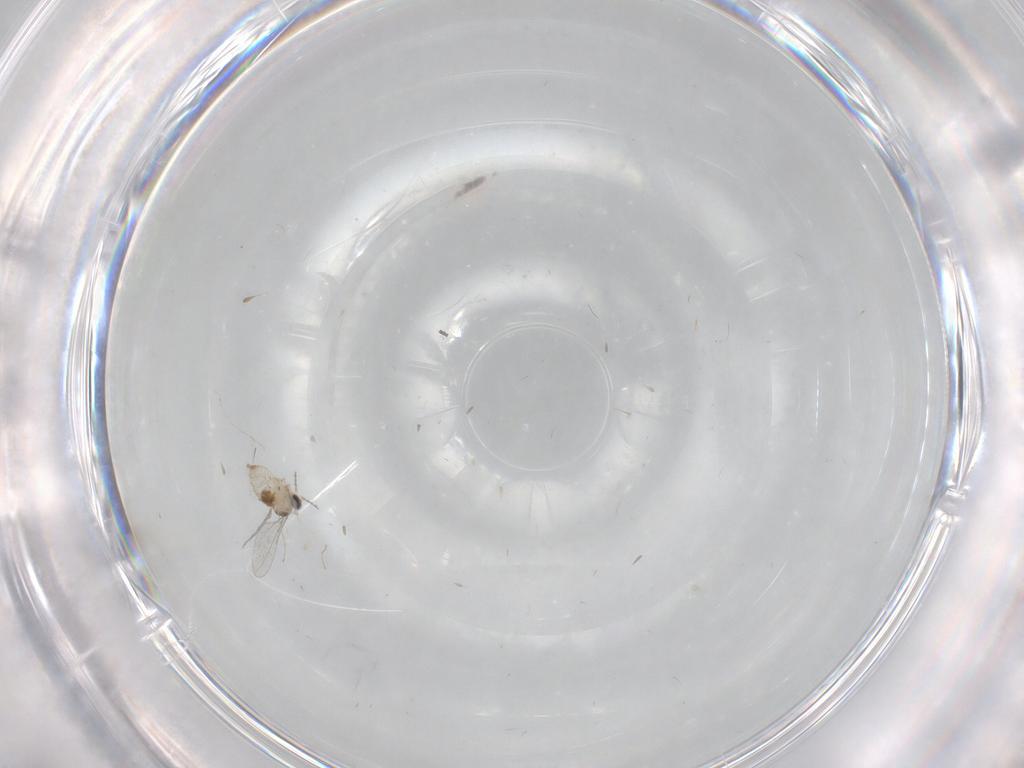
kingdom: Animalia
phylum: Arthropoda
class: Insecta
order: Diptera
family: Cecidomyiidae
